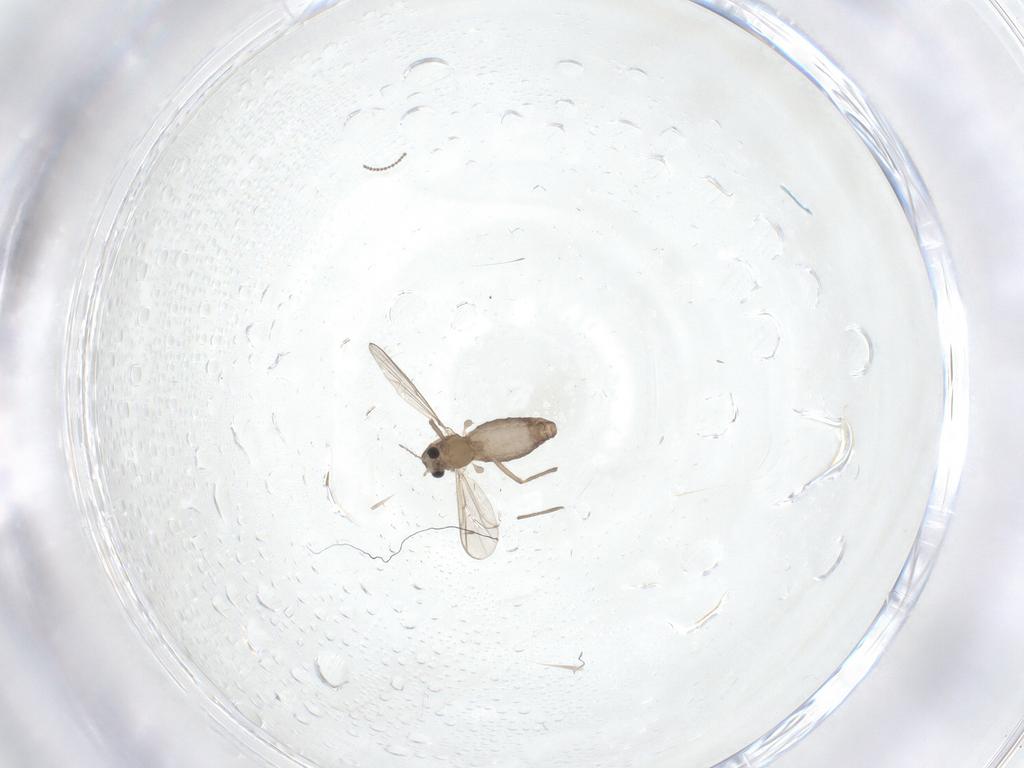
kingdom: Animalia
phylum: Arthropoda
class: Insecta
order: Diptera
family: Chironomidae
